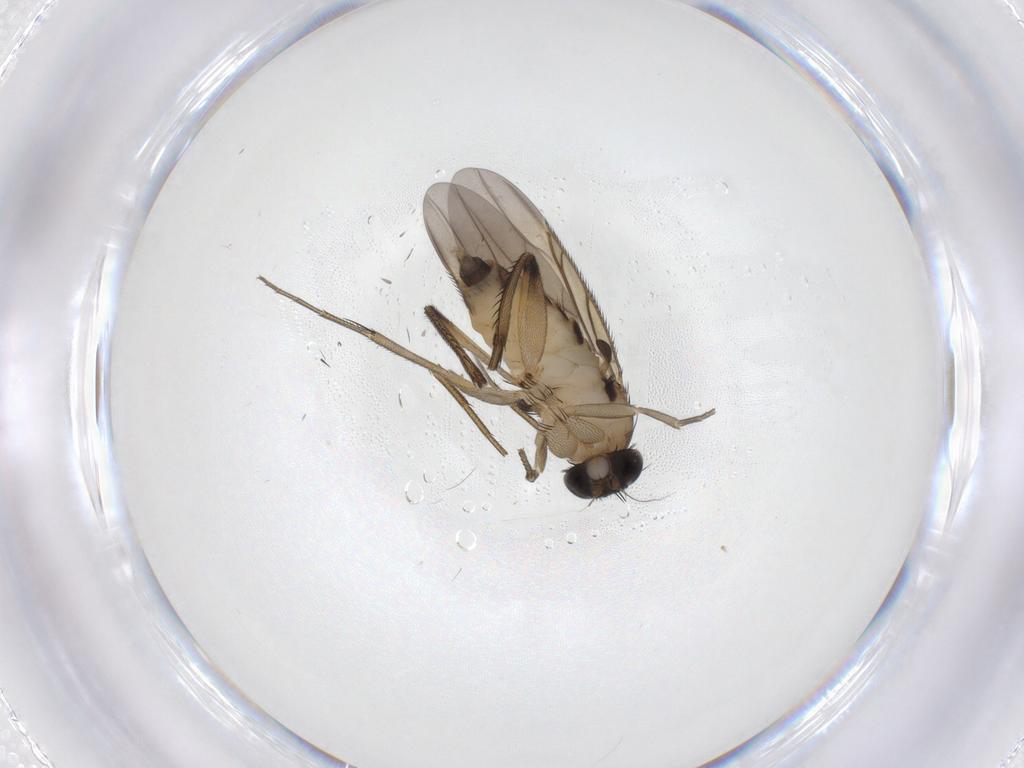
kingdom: Animalia
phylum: Arthropoda
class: Insecta
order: Diptera
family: Phoridae
